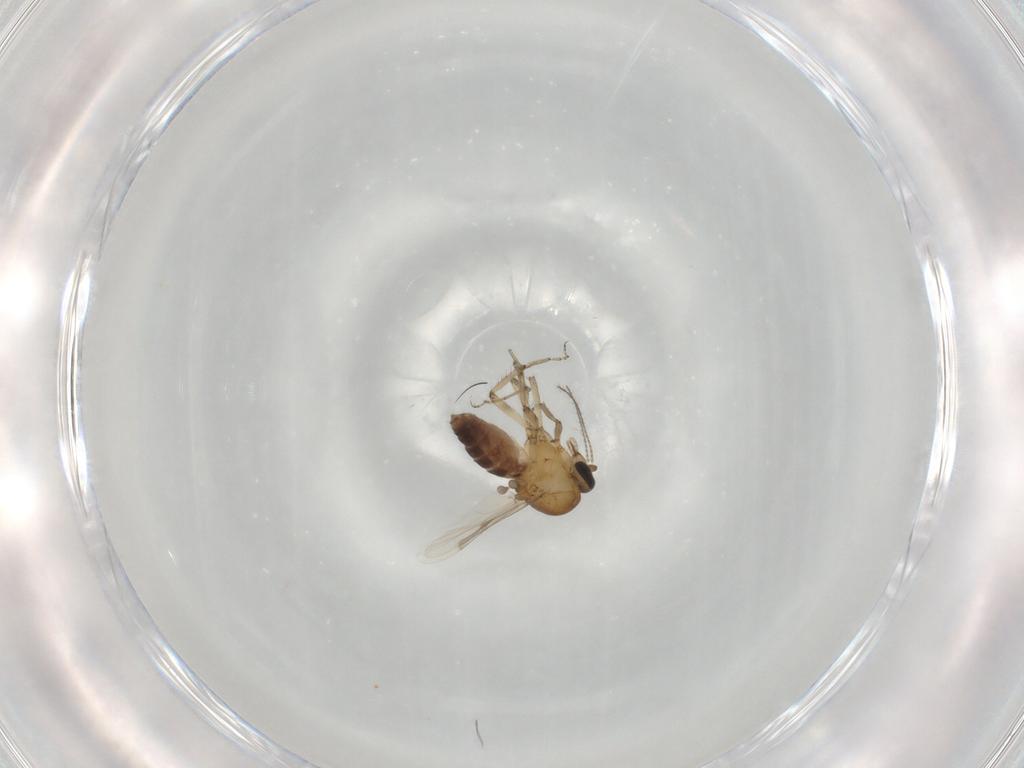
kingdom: Animalia
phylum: Arthropoda
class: Insecta
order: Diptera
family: Ceratopogonidae
